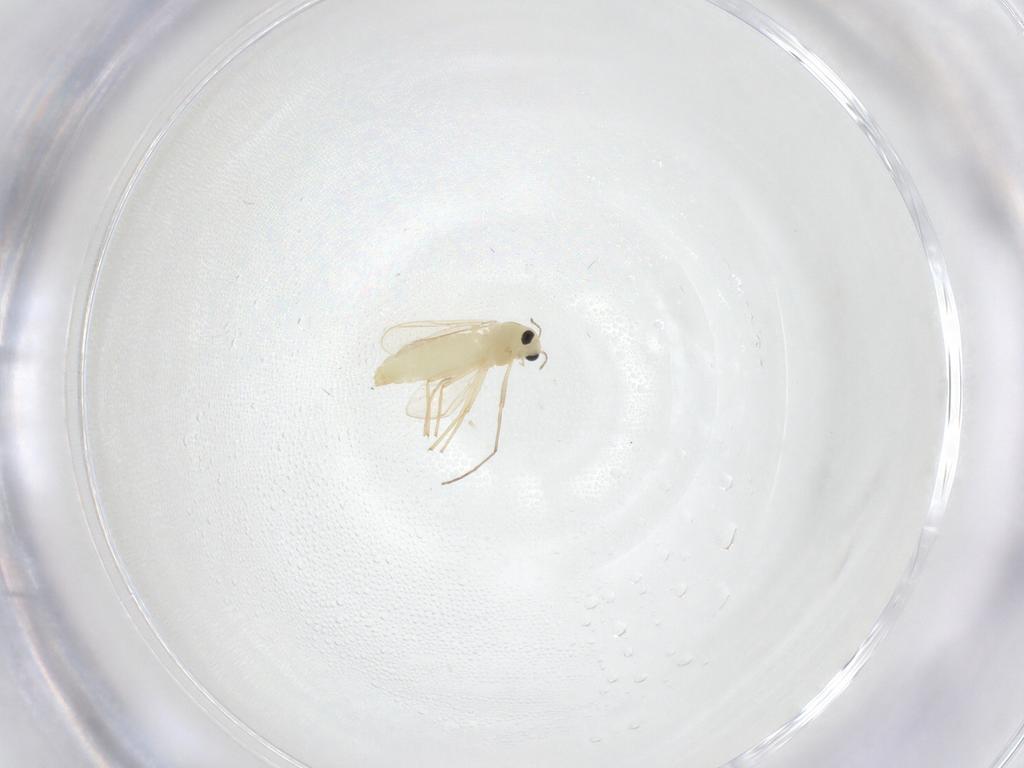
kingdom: Animalia
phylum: Arthropoda
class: Insecta
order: Diptera
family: Chironomidae
